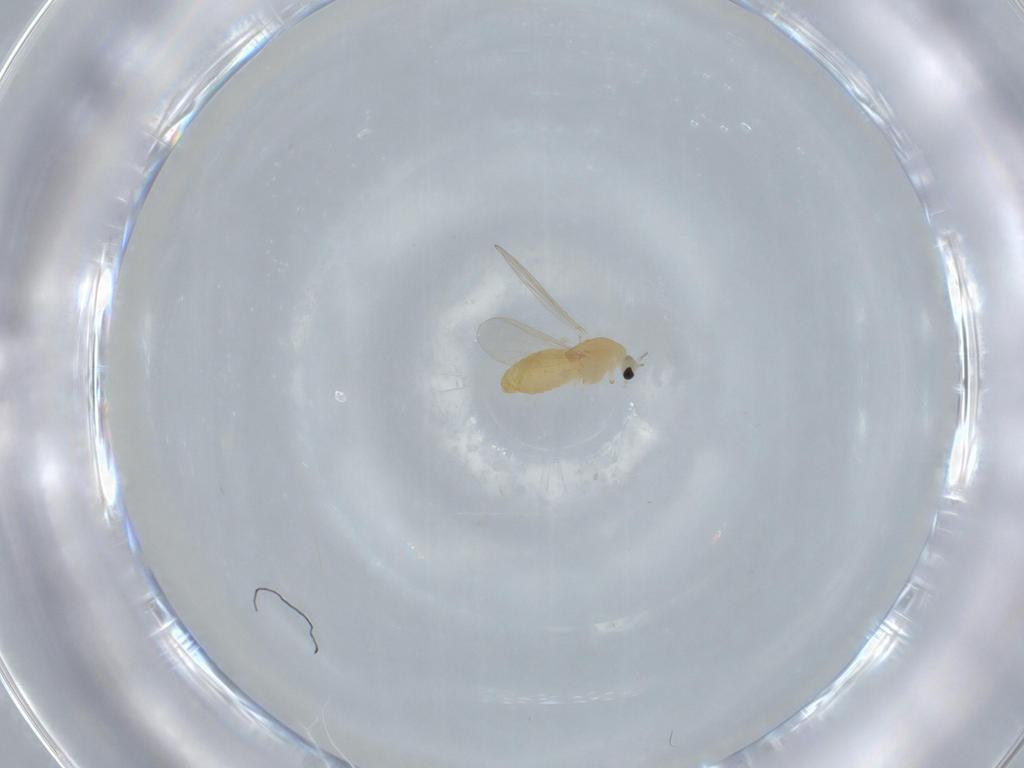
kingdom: Animalia
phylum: Arthropoda
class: Insecta
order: Diptera
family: Chironomidae
